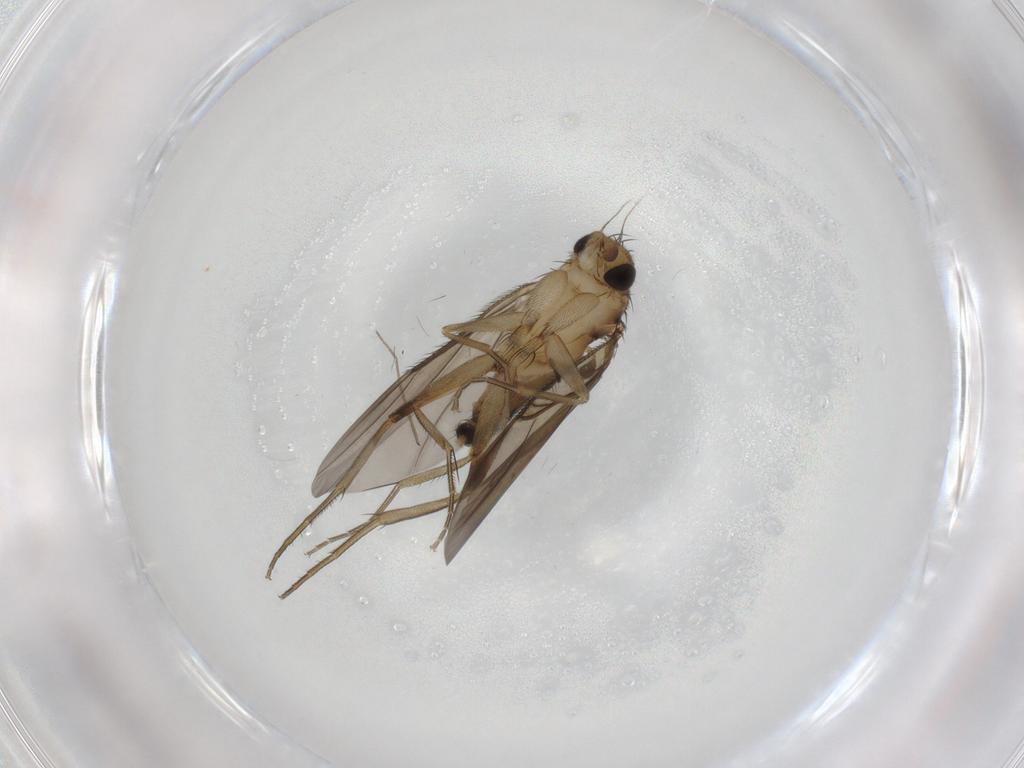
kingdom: Animalia
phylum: Arthropoda
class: Insecta
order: Diptera
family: Phoridae
